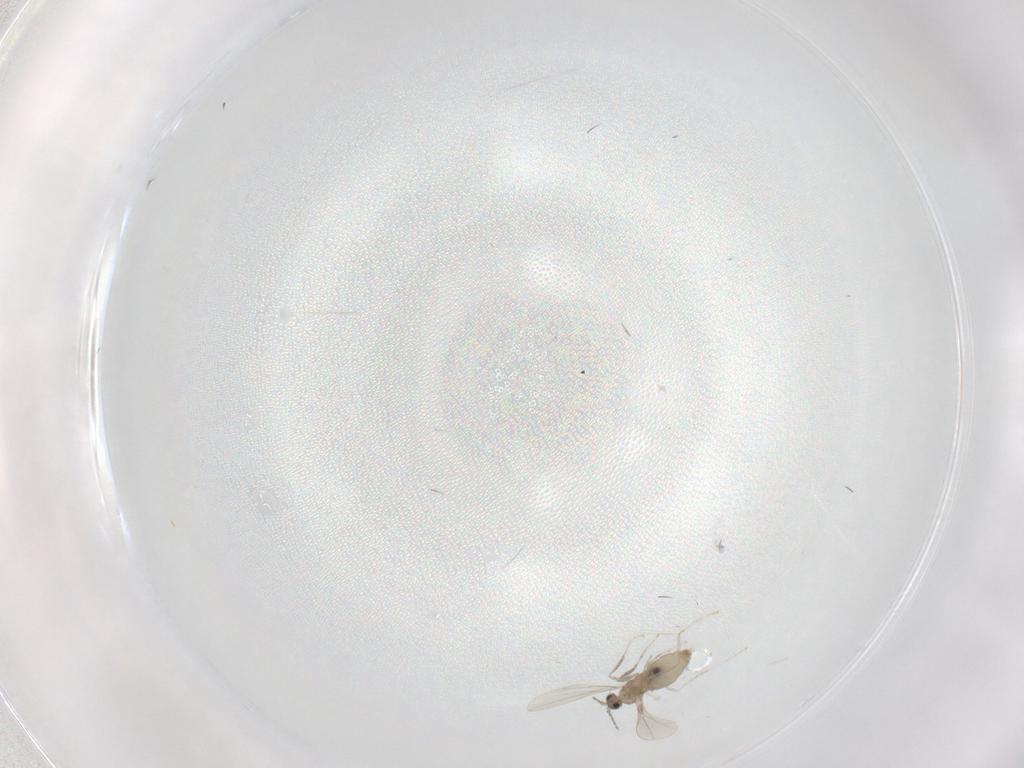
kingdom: Animalia
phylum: Arthropoda
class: Insecta
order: Diptera
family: Cecidomyiidae
